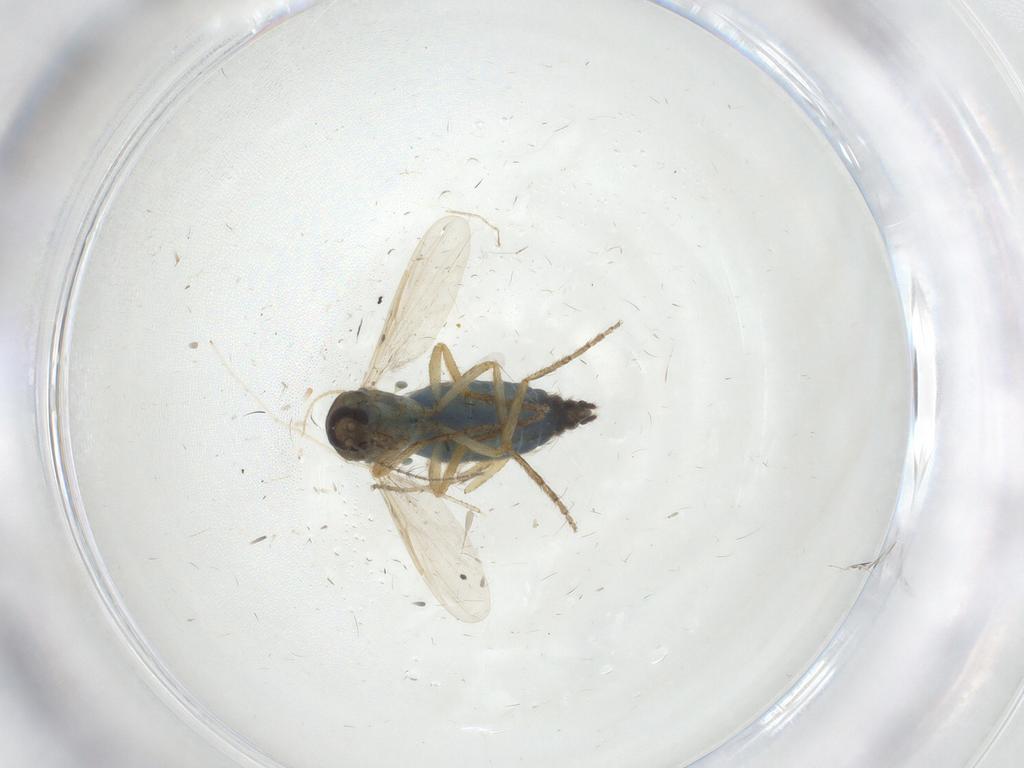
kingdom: Animalia
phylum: Arthropoda
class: Insecta
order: Diptera
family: Ceratopogonidae
